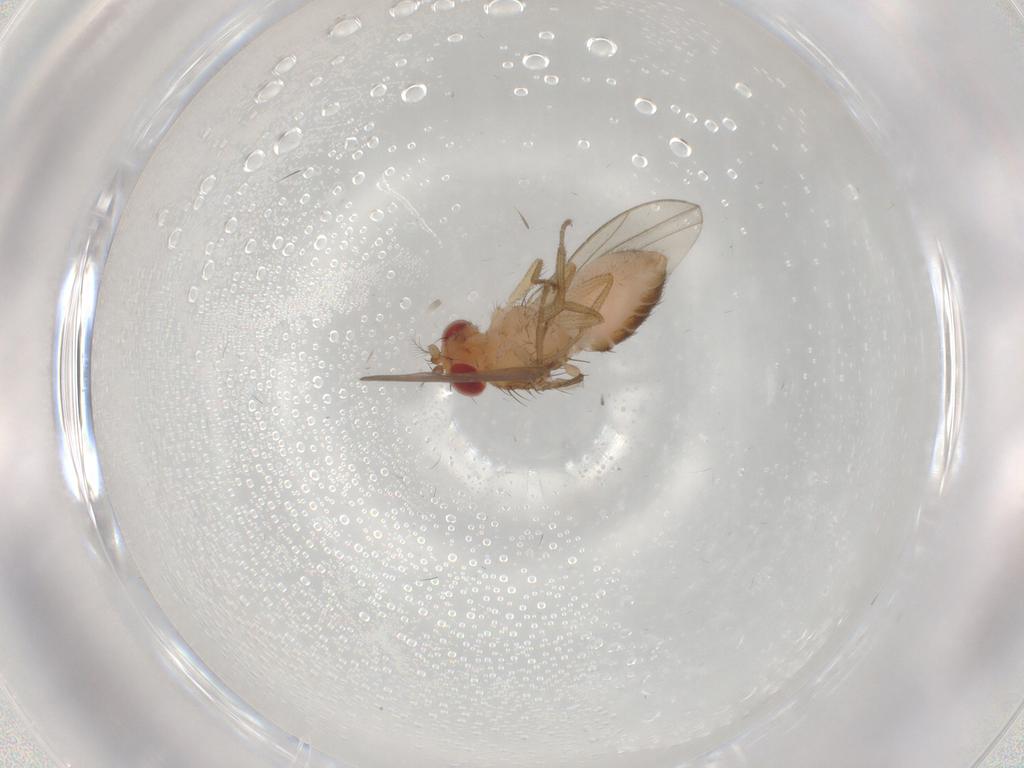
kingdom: Animalia
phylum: Arthropoda
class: Insecta
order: Diptera
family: Drosophilidae
